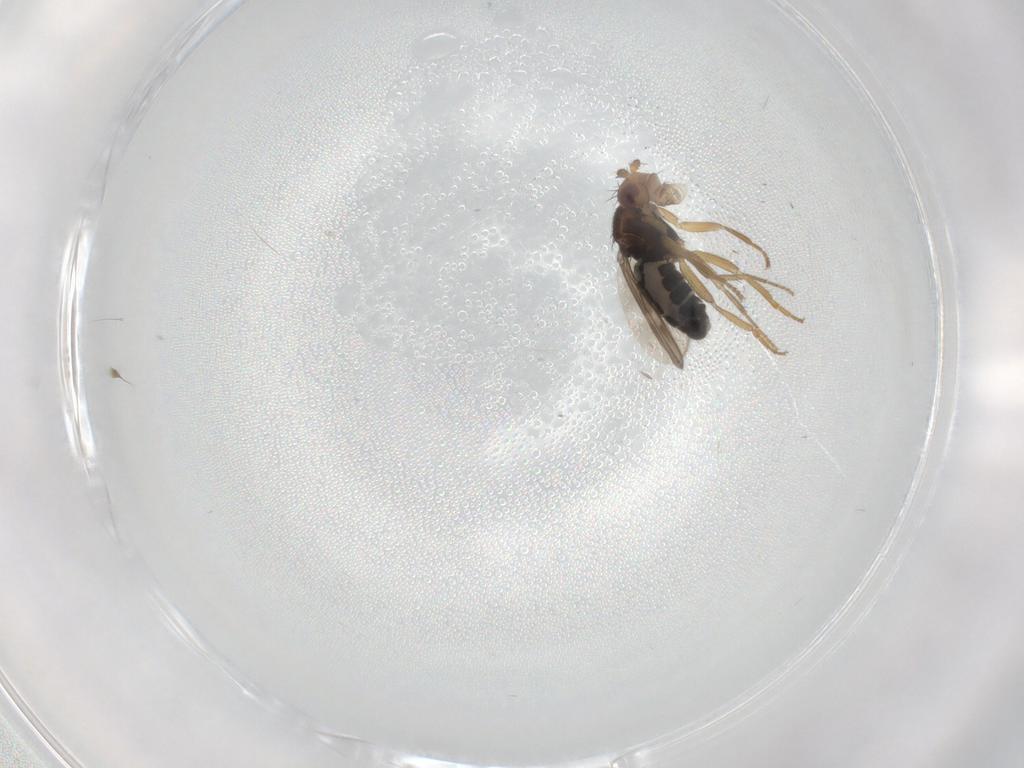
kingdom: Animalia
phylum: Arthropoda
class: Insecta
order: Diptera
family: Sphaeroceridae
